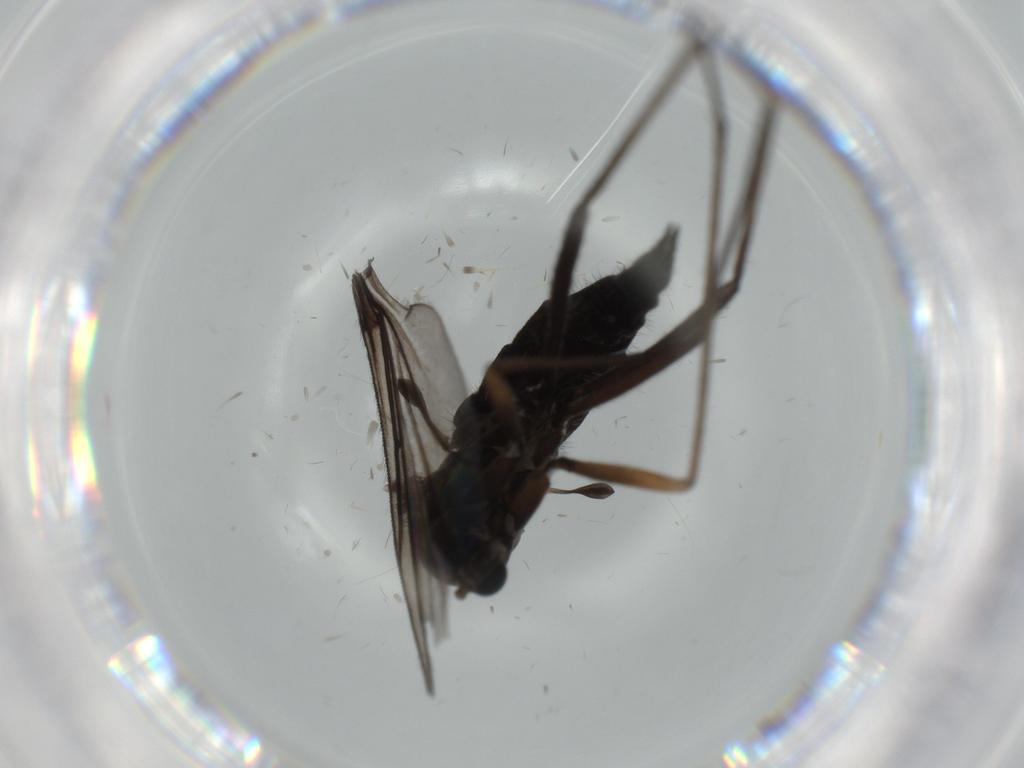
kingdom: Animalia
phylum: Arthropoda
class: Insecta
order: Diptera
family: Sciaridae
